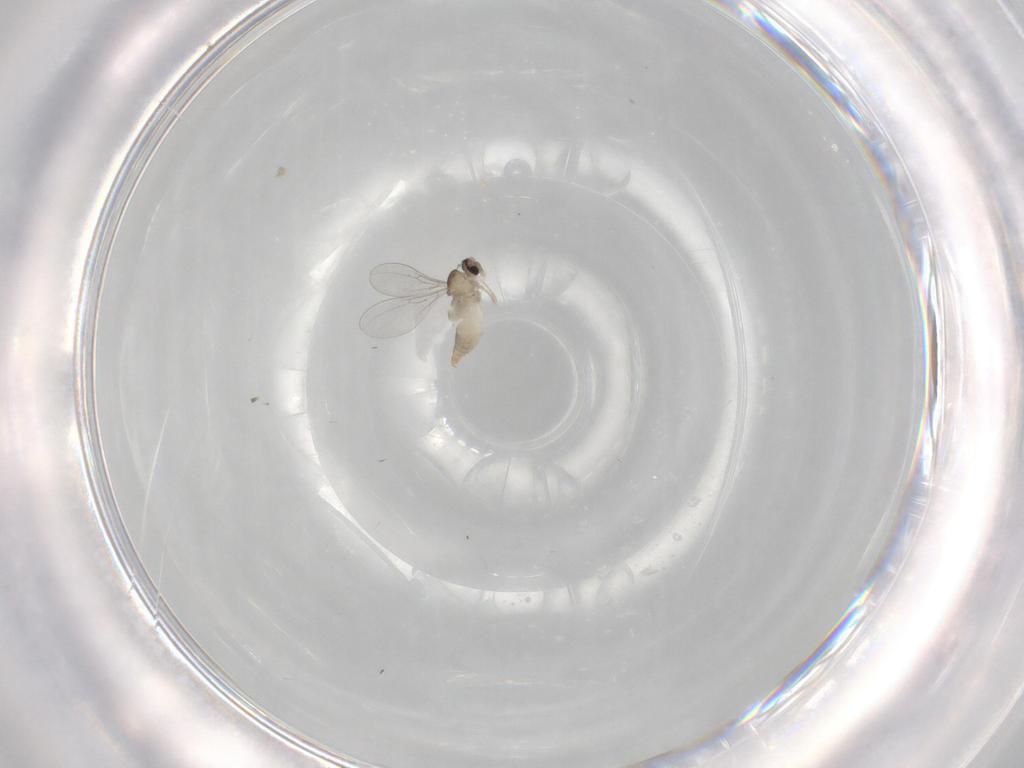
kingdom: Animalia
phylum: Arthropoda
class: Insecta
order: Diptera
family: Cecidomyiidae
